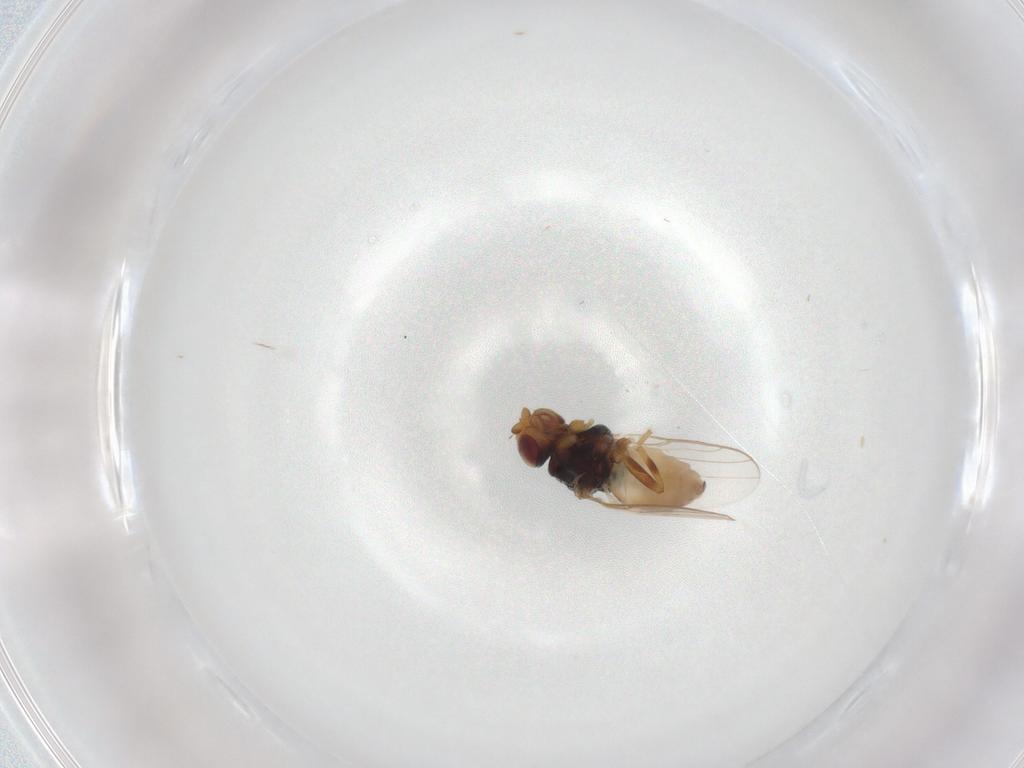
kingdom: Animalia
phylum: Arthropoda
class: Insecta
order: Diptera
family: Chloropidae
